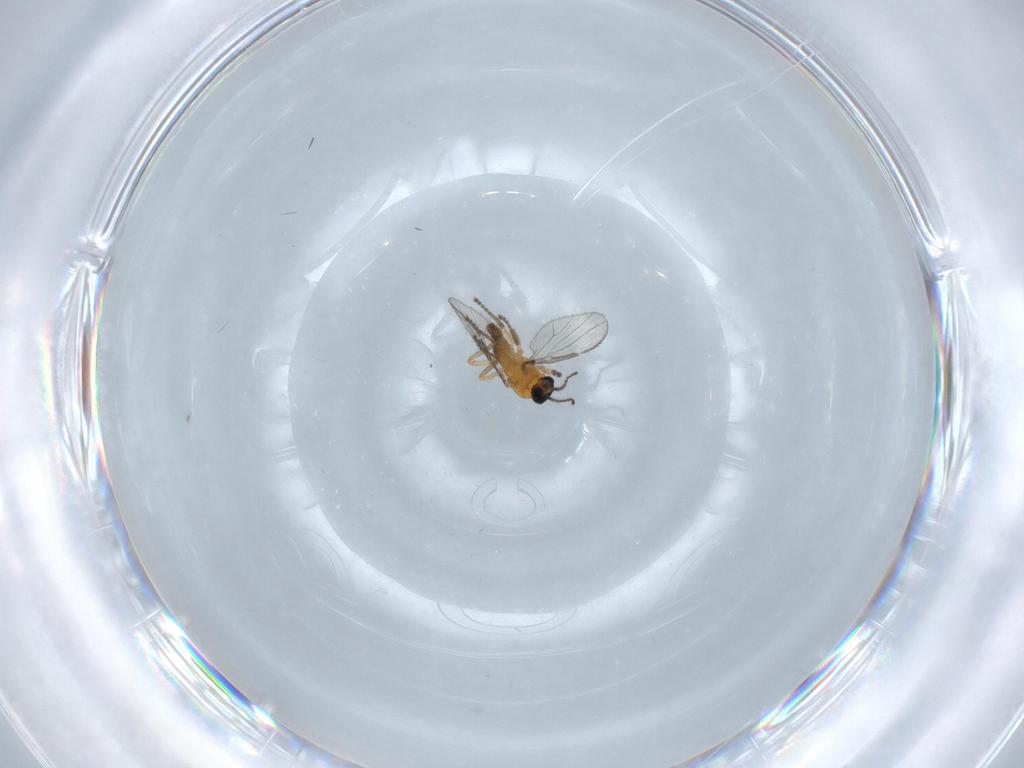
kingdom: Animalia
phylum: Arthropoda
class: Insecta
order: Diptera
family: Ceratopogonidae
